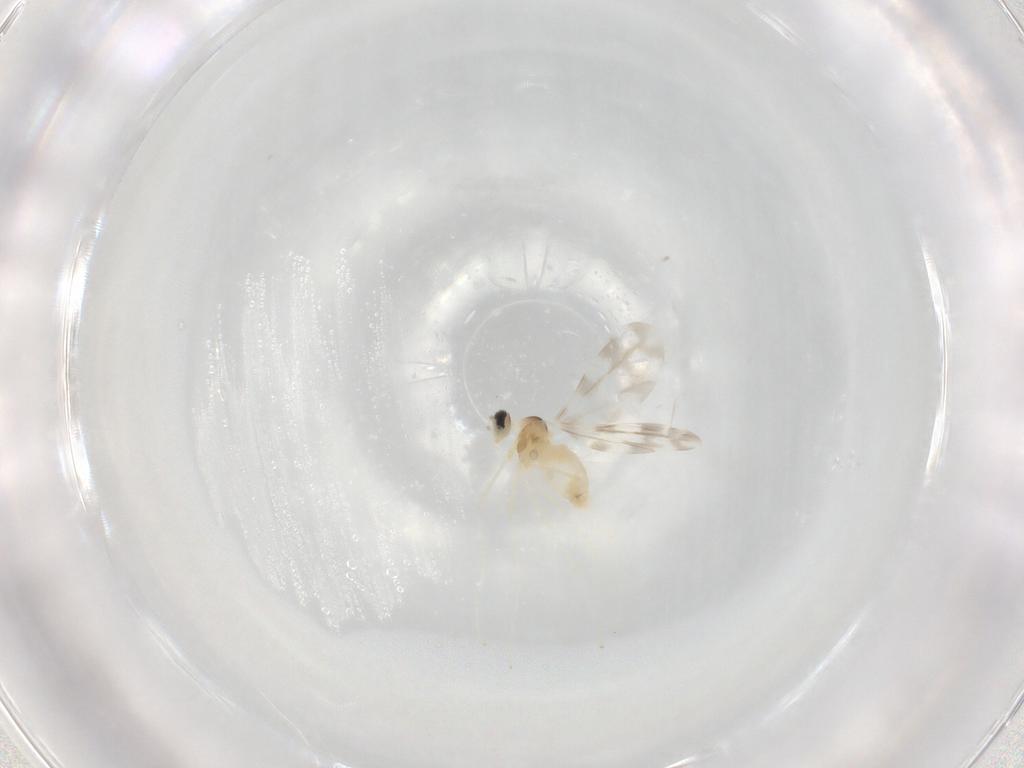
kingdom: Animalia
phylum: Arthropoda
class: Insecta
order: Diptera
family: Cecidomyiidae
